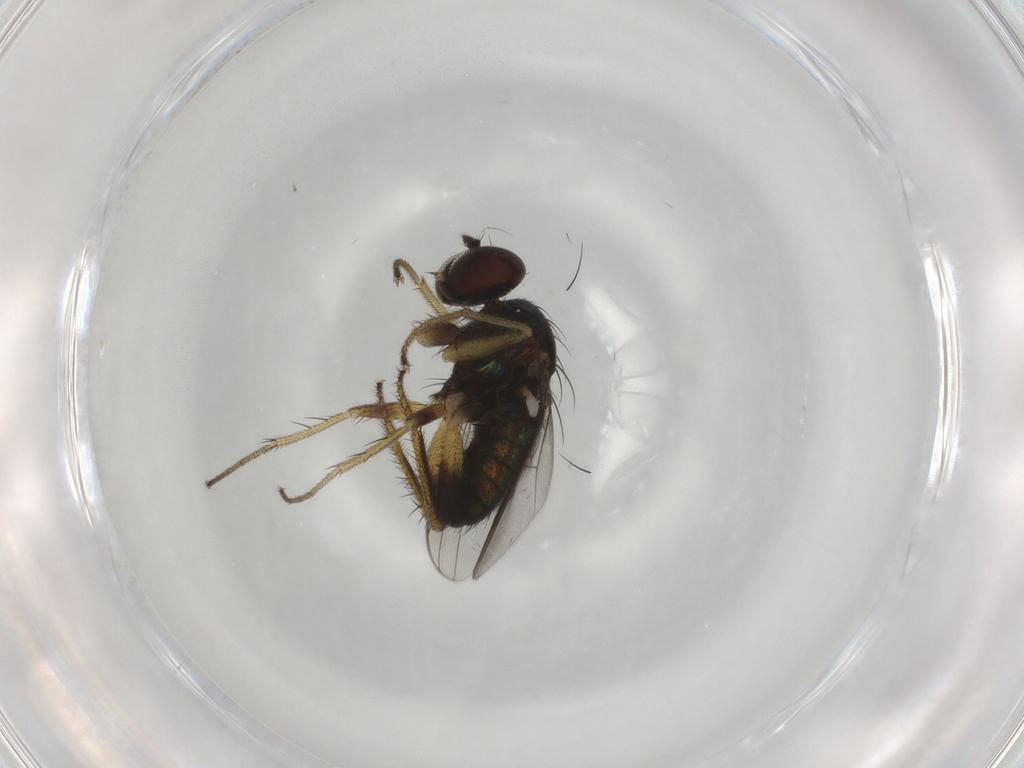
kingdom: Animalia
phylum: Arthropoda
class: Insecta
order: Diptera
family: Dolichopodidae
